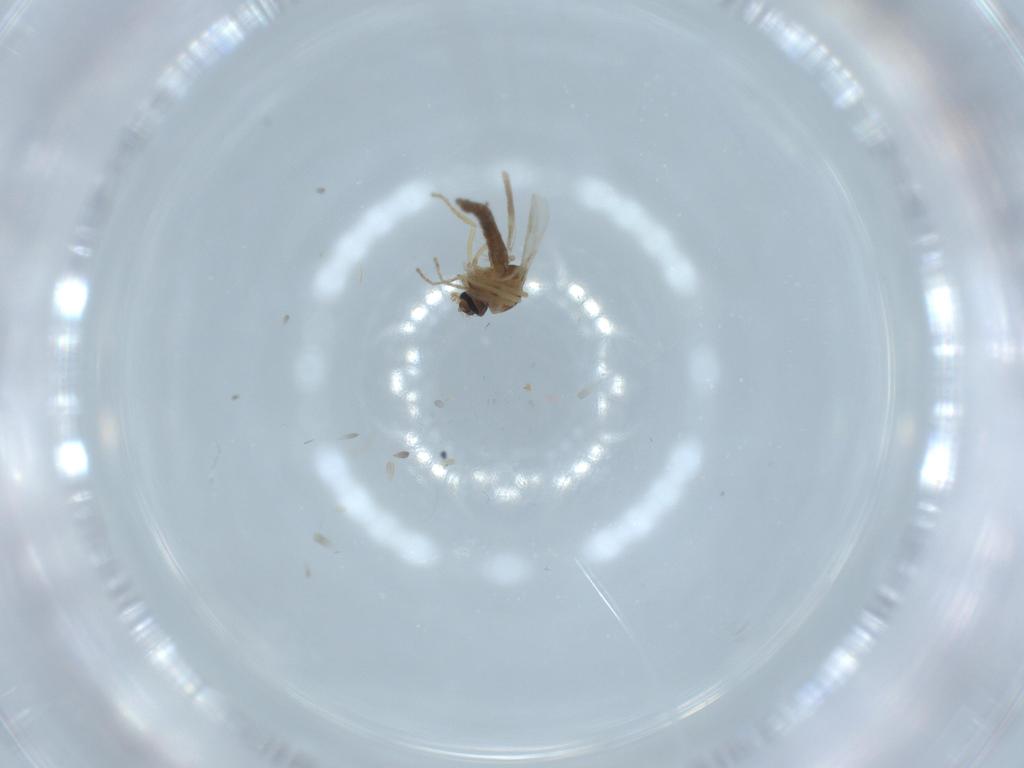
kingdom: Animalia
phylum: Arthropoda
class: Insecta
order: Diptera
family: Ceratopogonidae
